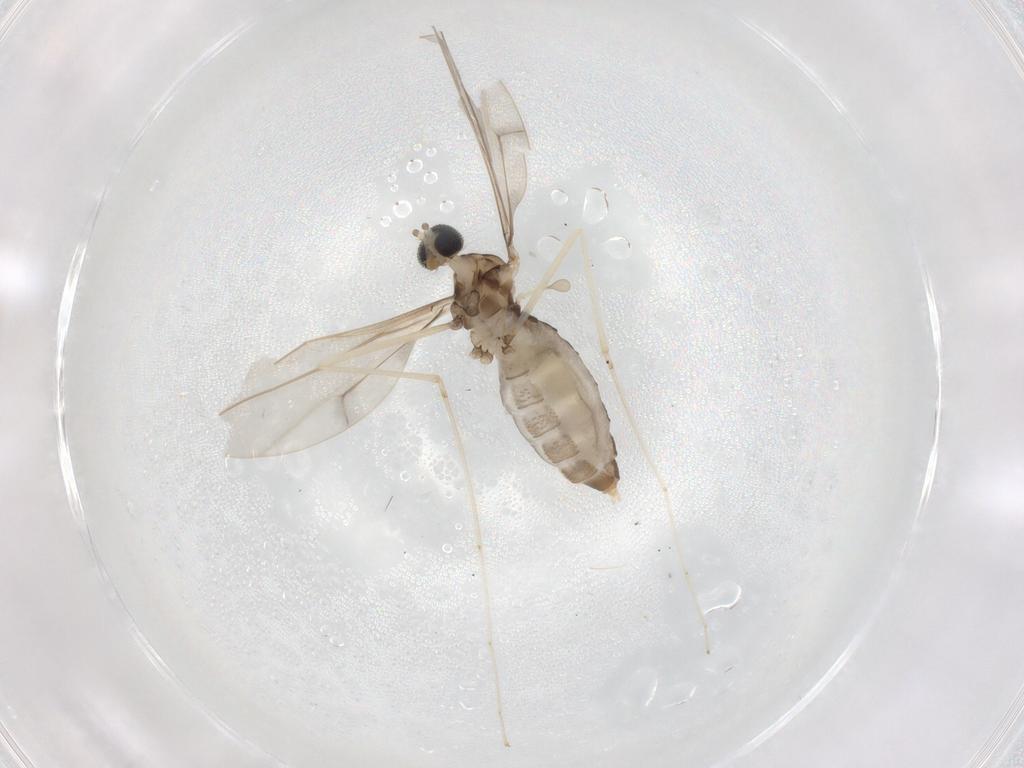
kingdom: Animalia
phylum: Arthropoda
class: Insecta
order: Diptera
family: Cecidomyiidae
